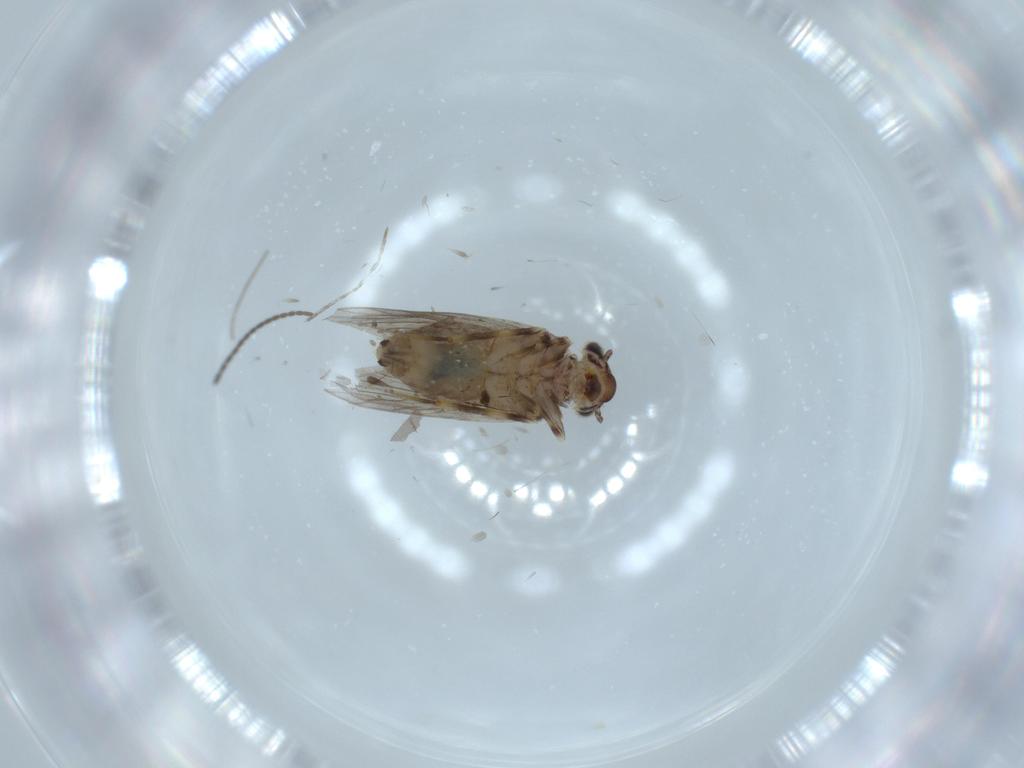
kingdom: Animalia
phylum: Arthropoda
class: Insecta
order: Psocodea
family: Lepidopsocidae
